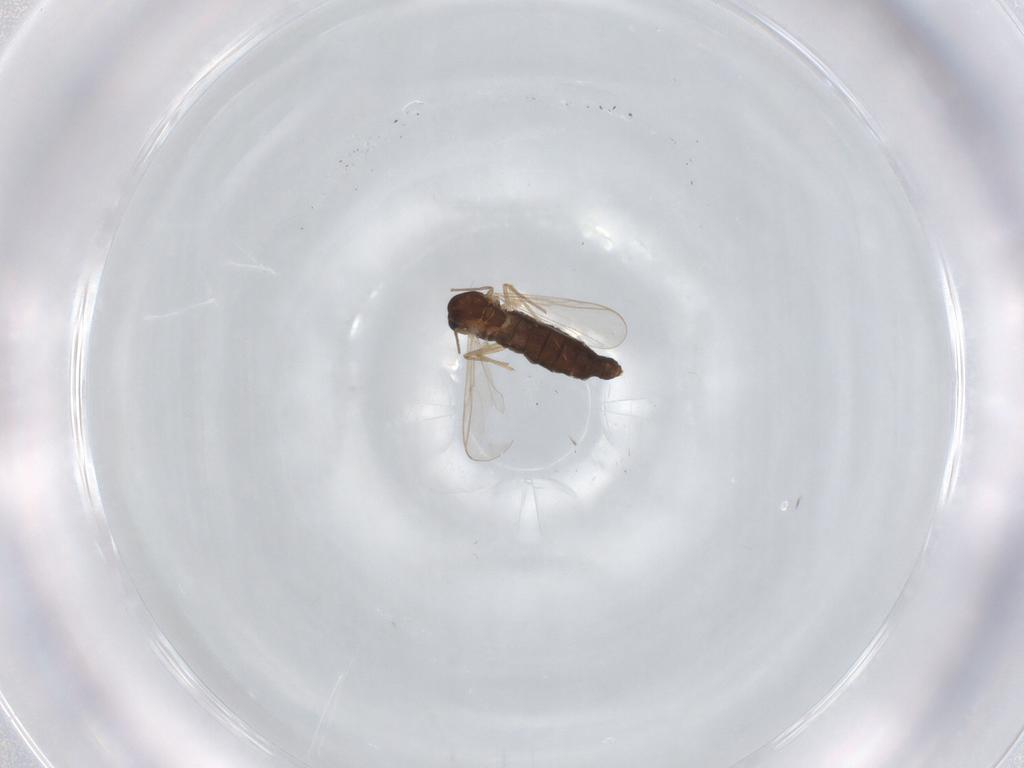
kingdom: Animalia
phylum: Arthropoda
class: Insecta
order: Diptera
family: Chironomidae
